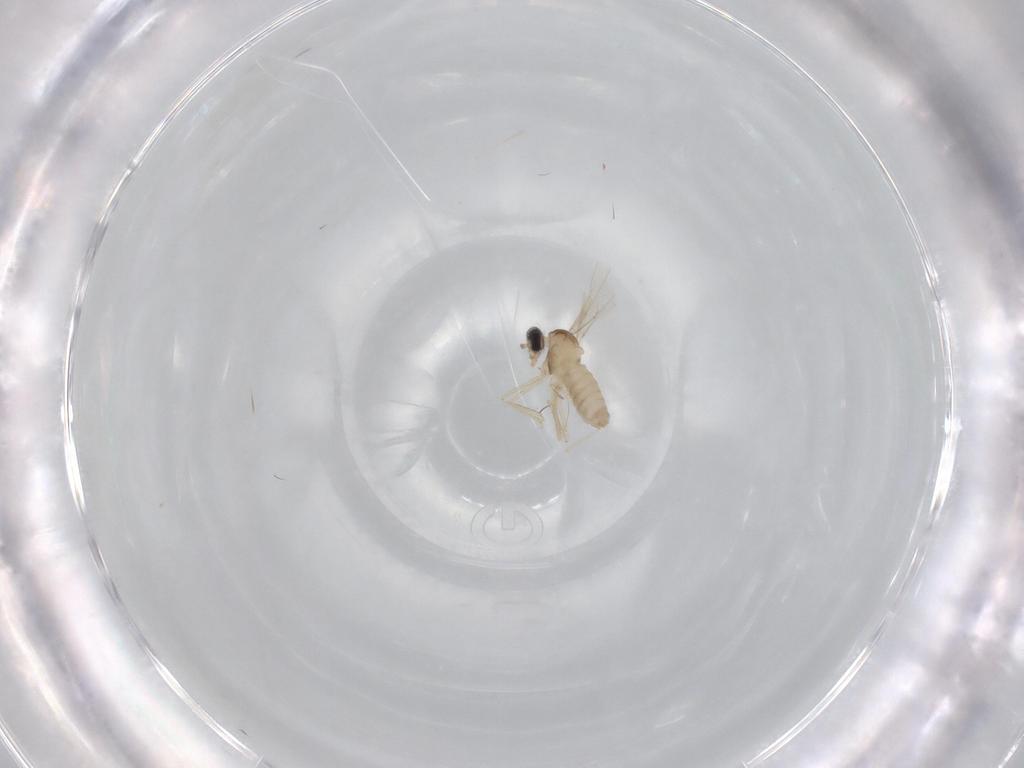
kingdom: Animalia
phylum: Arthropoda
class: Insecta
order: Diptera
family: Cecidomyiidae
